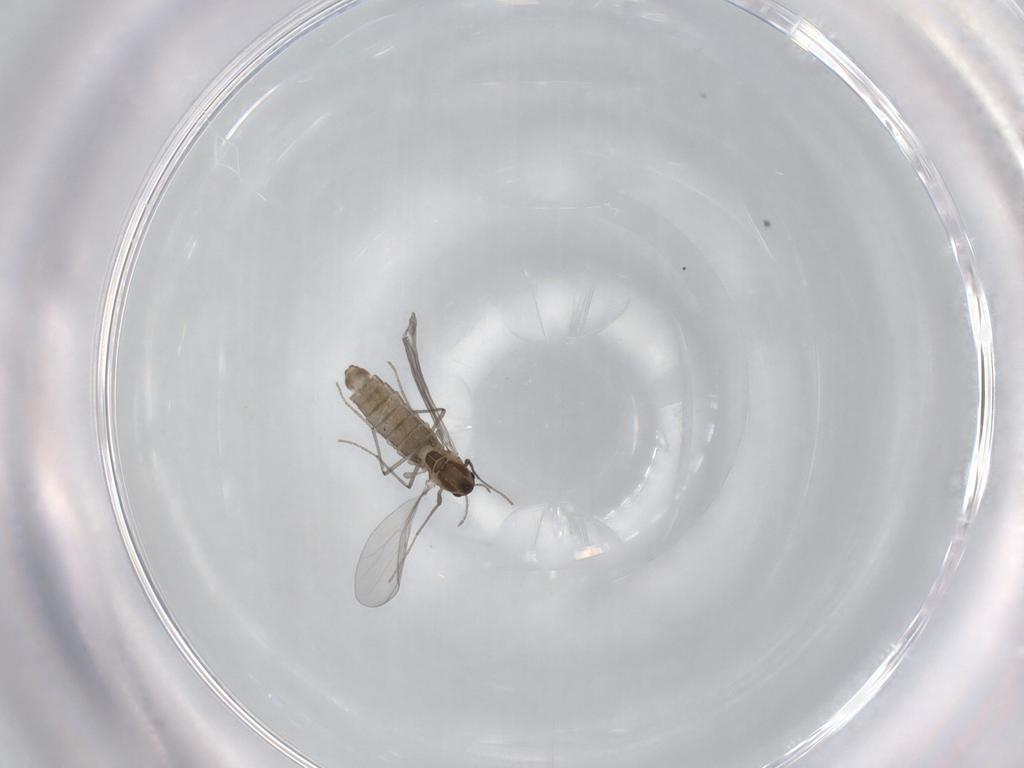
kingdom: Animalia
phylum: Arthropoda
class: Insecta
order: Diptera
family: Chironomidae
